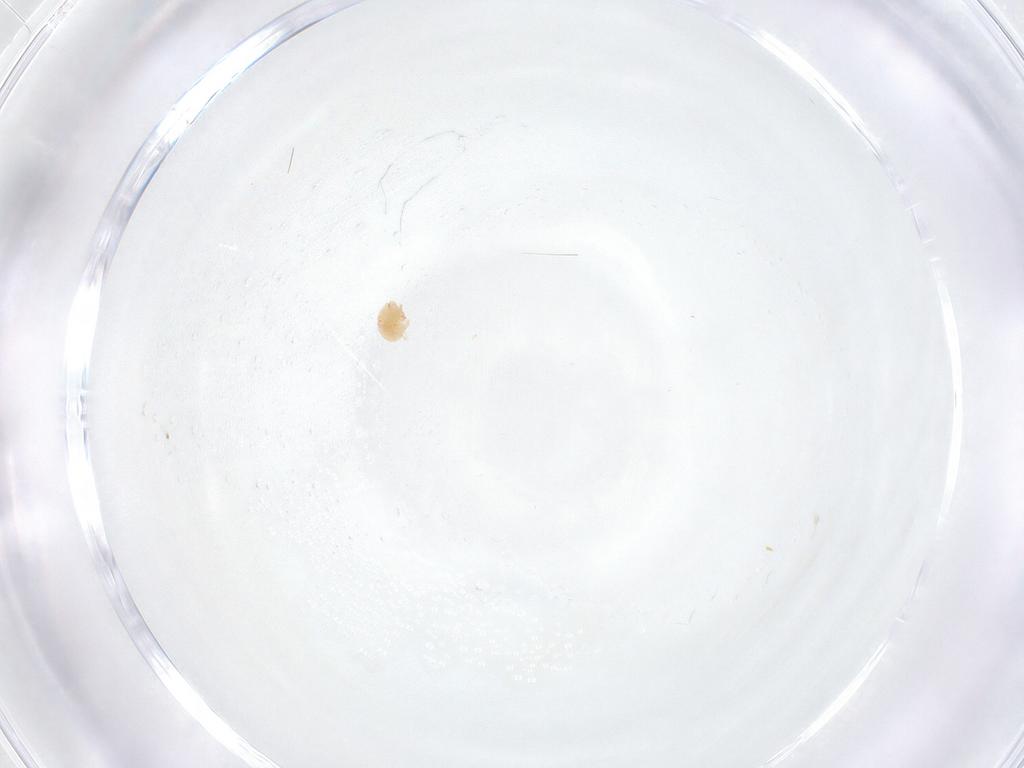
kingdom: Animalia
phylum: Arthropoda
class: Arachnida
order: Trombidiformes
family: Tetranychidae
